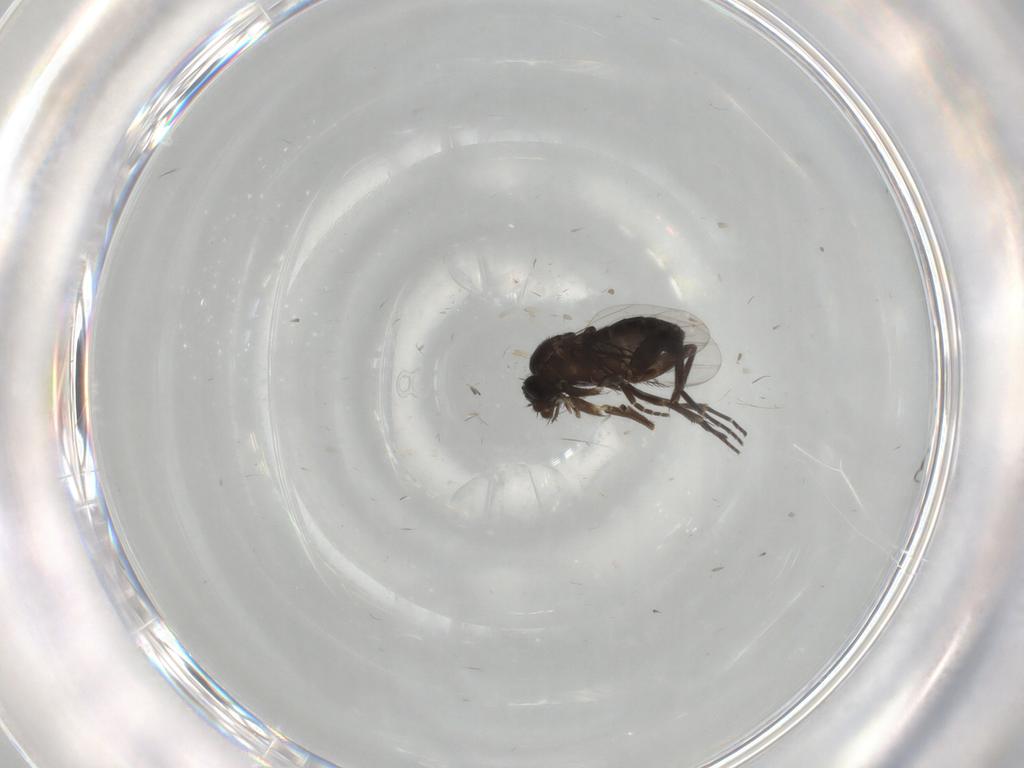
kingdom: Animalia
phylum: Arthropoda
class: Insecta
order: Diptera
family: Phoridae
